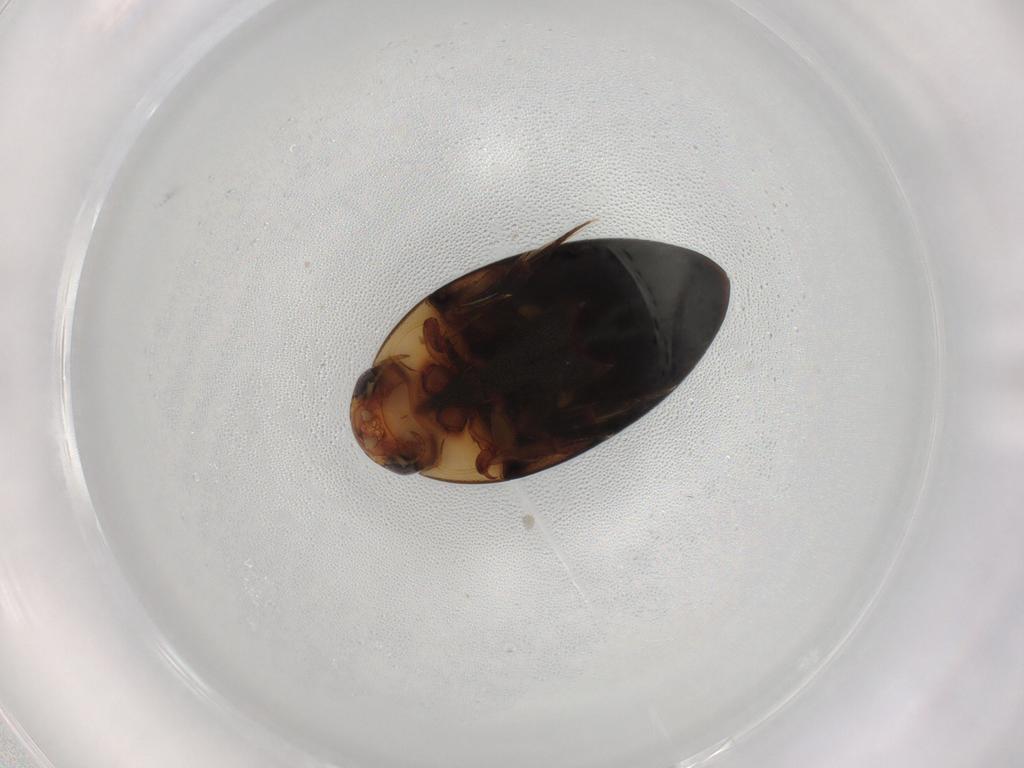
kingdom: Animalia
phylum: Arthropoda
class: Insecta
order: Coleoptera
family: Noteridae
